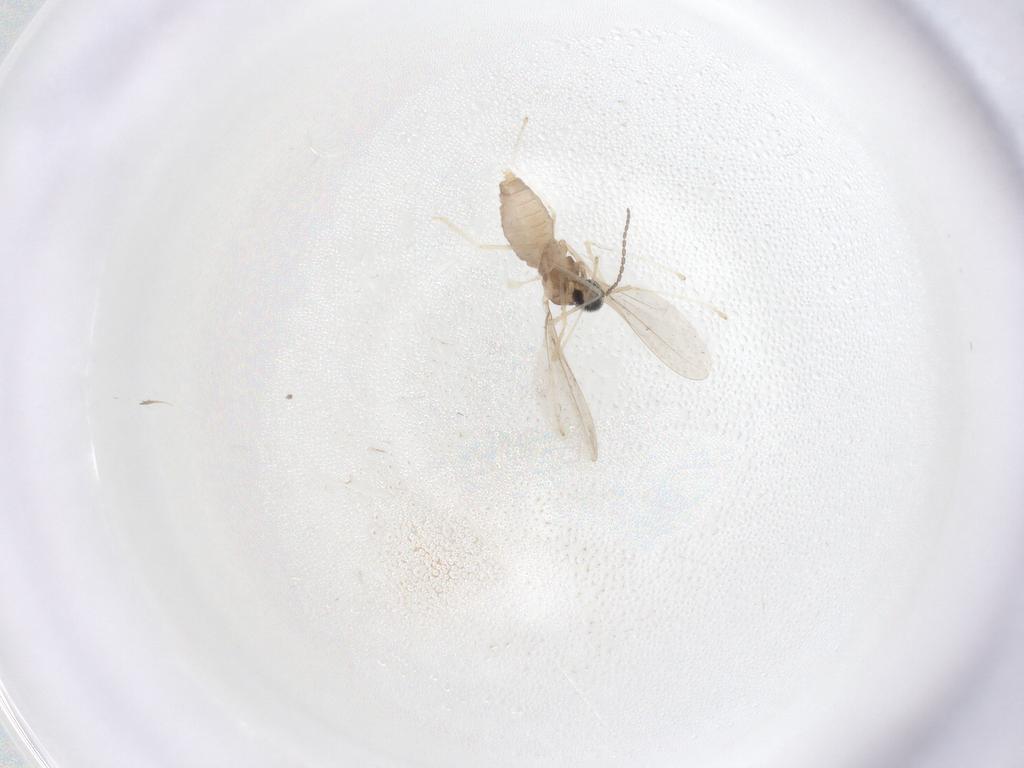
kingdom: Animalia
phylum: Arthropoda
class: Insecta
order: Diptera
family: Cecidomyiidae
